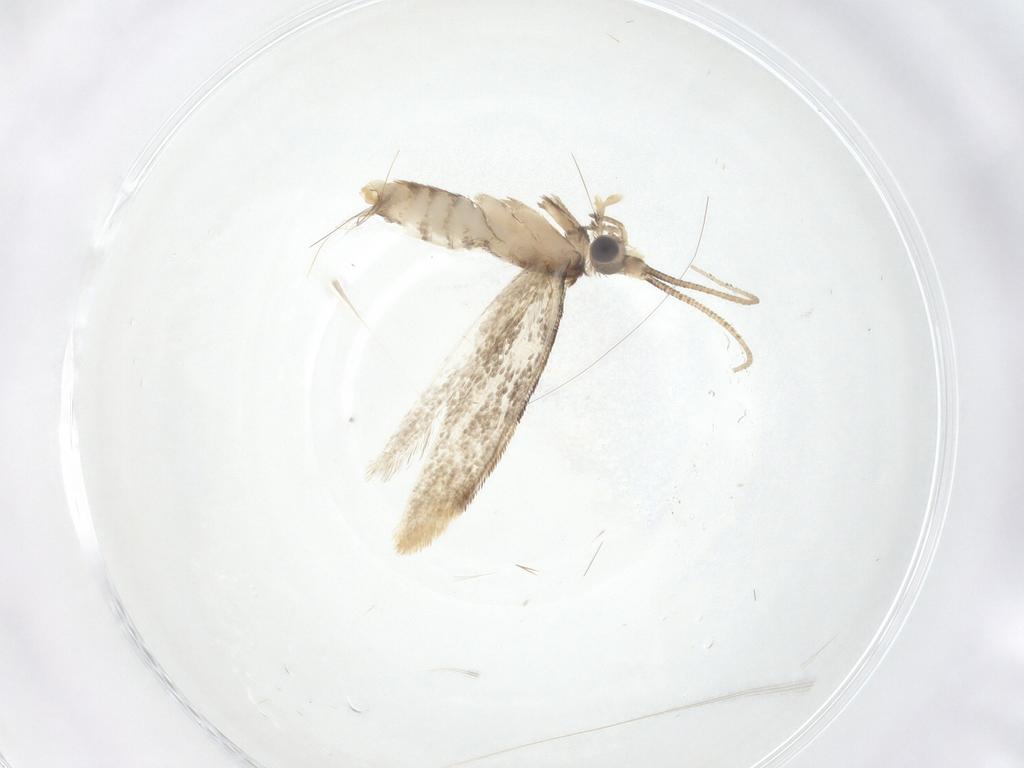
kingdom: Animalia
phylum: Arthropoda
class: Insecta
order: Lepidoptera
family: Dryadaulidae
